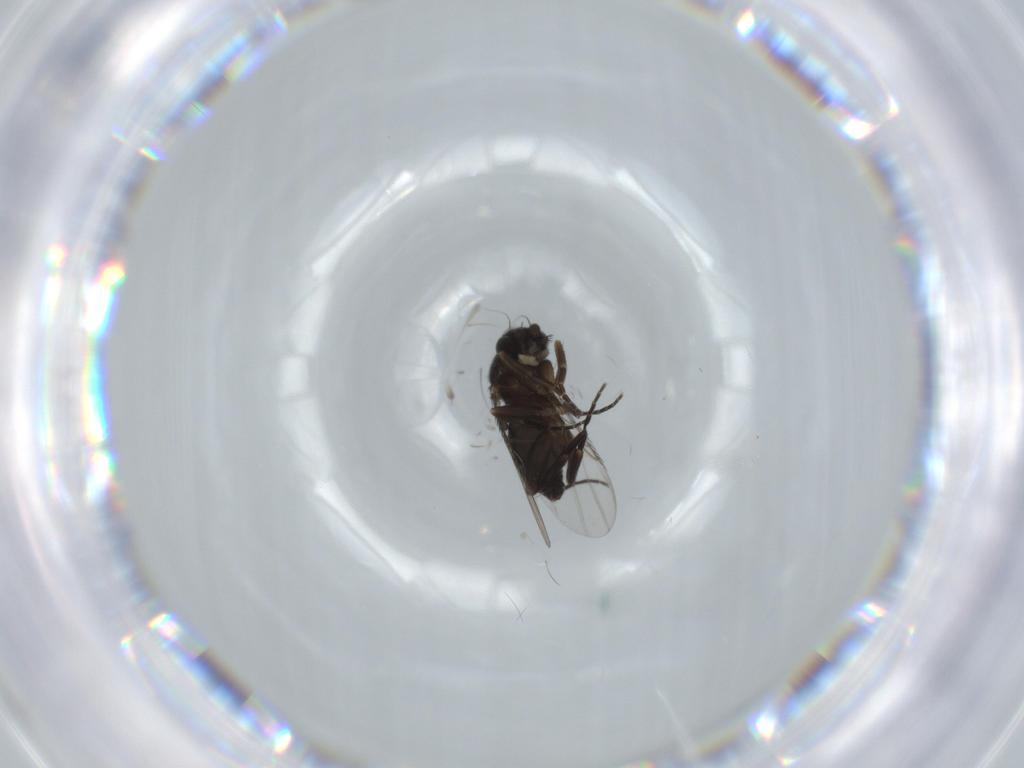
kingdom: Animalia
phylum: Arthropoda
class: Insecta
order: Diptera
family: Phoridae
